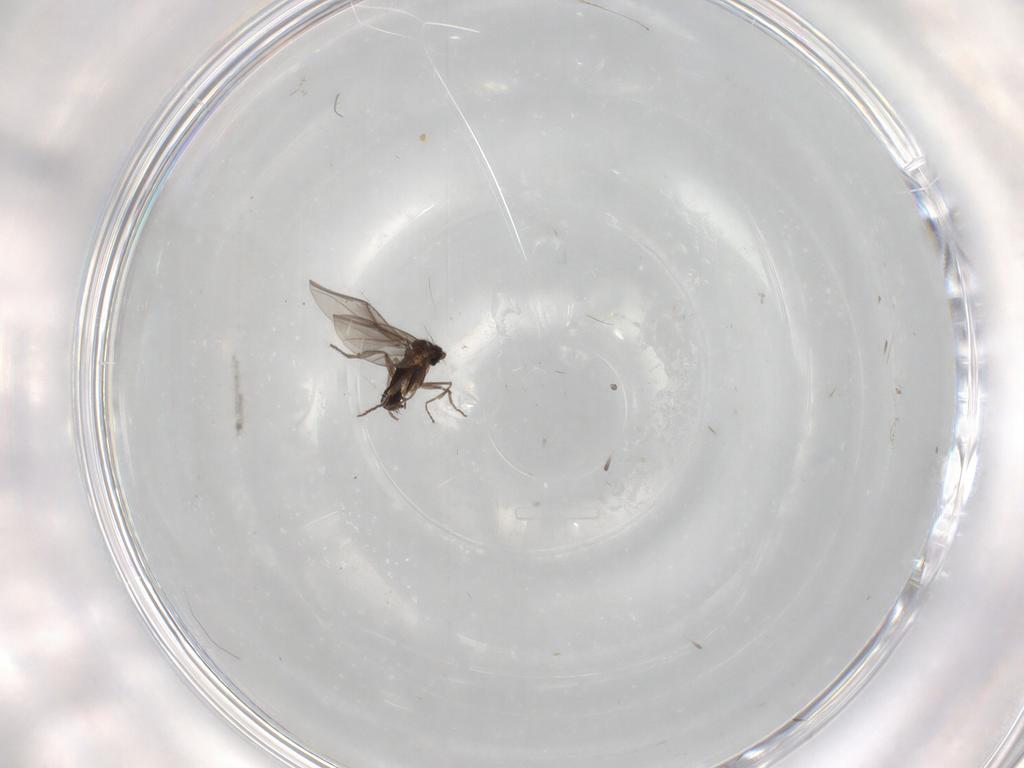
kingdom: Animalia
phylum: Arthropoda
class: Insecta
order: Diptera
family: Phoridae
